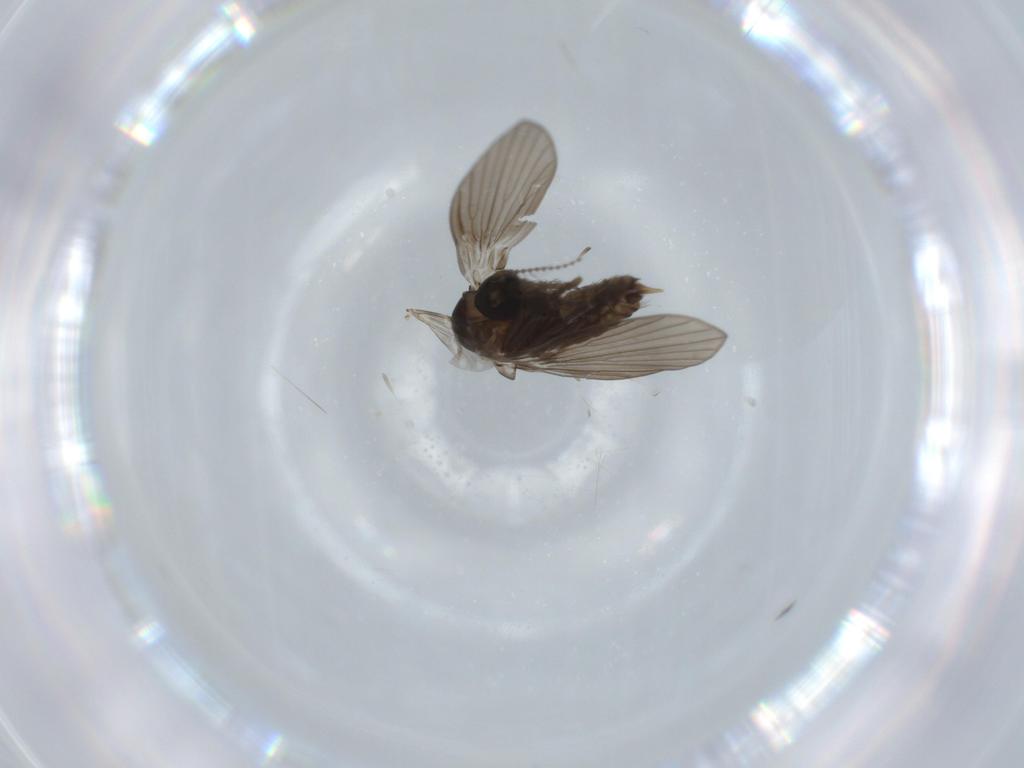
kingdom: Animalia
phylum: Arthropoda
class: Insecta
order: Diptera
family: Psychodidae
